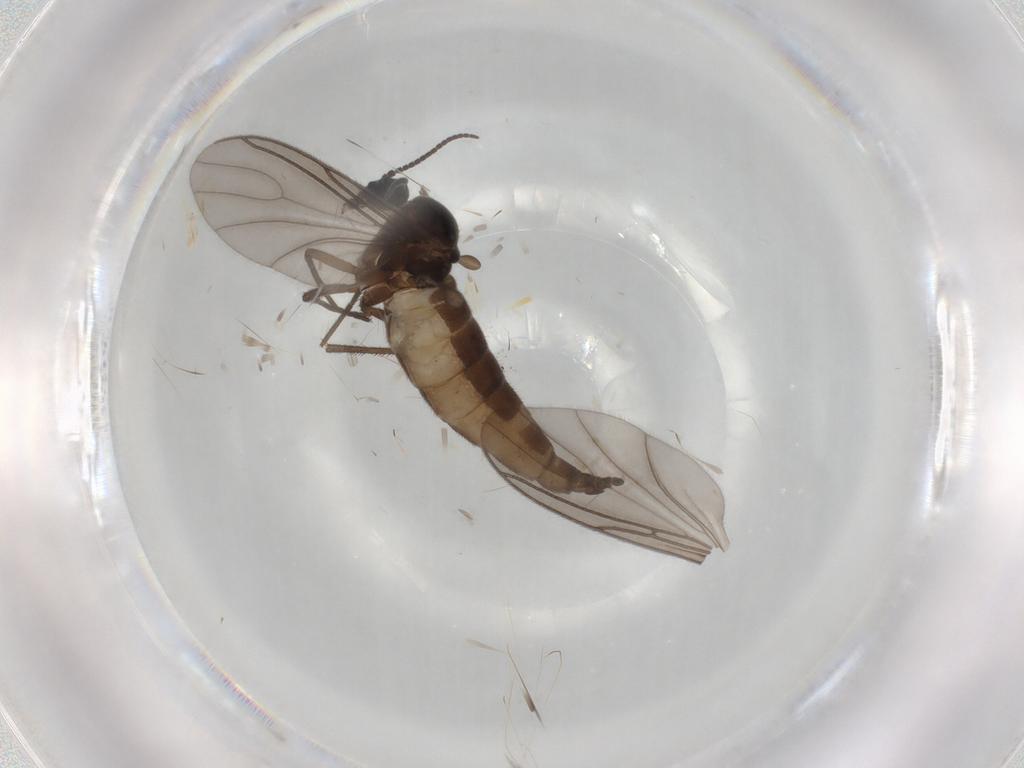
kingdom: Animalia
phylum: Arthropoda
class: Insecta
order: Diptera
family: Sciaridae
